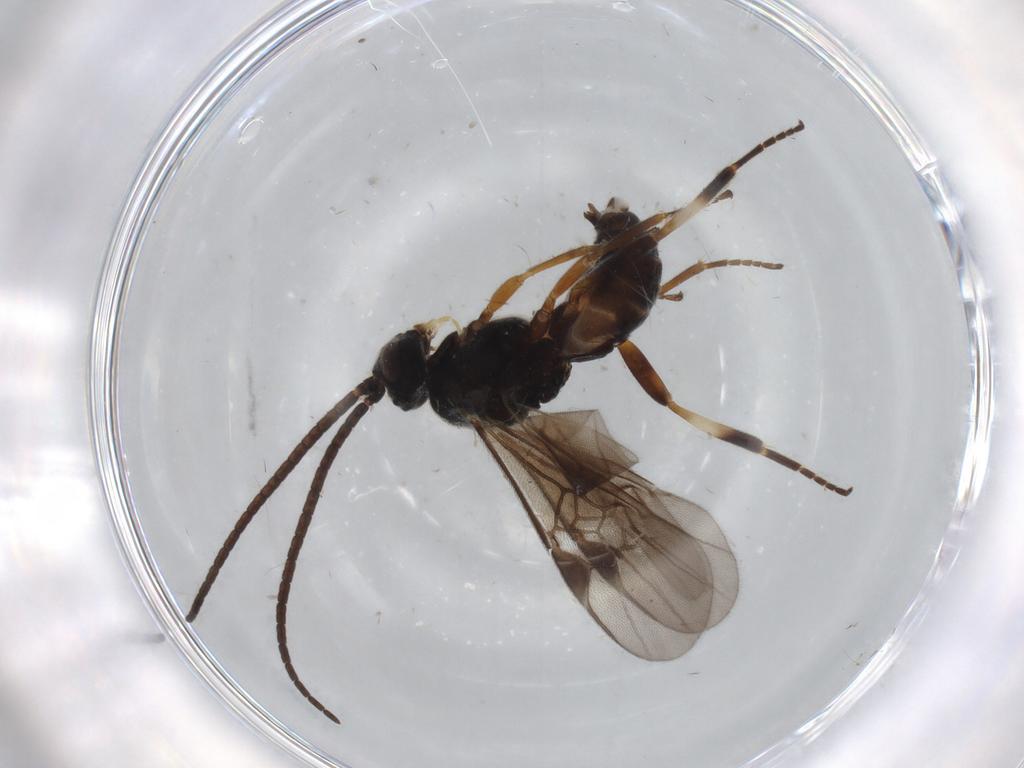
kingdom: Animalia
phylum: Arthropoda
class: Insecta
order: Hymenoptera
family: Braconidae
